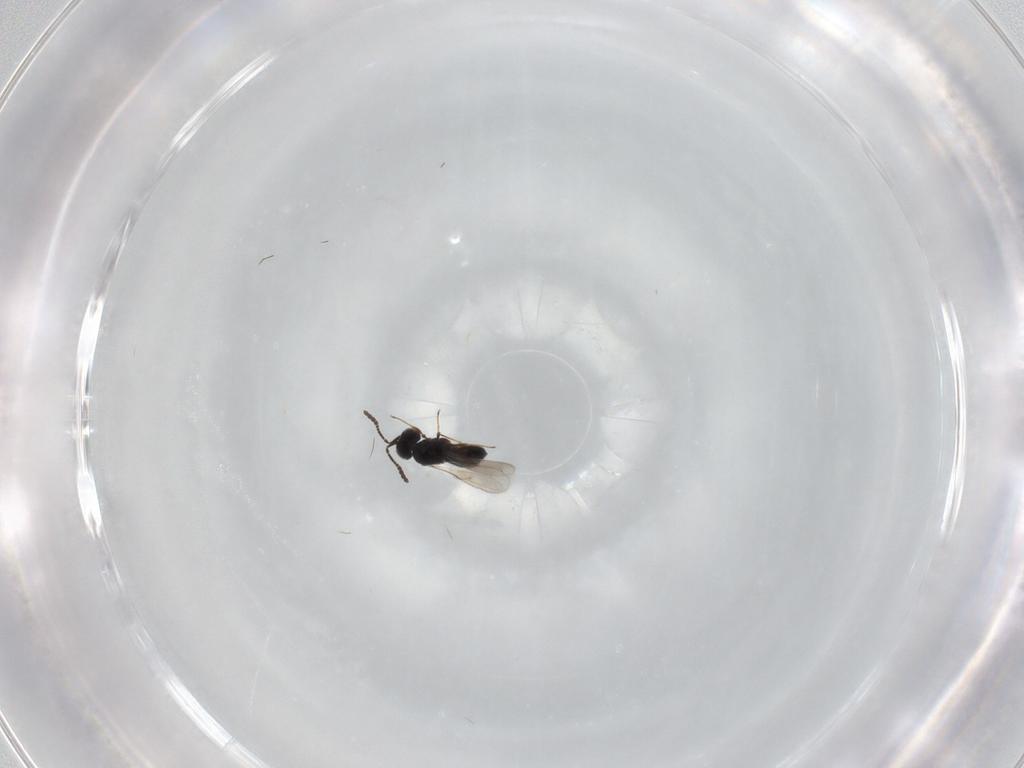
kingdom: Animalia
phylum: Arthropoda
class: Insecta
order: Hymenoptera
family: Scelionidae
